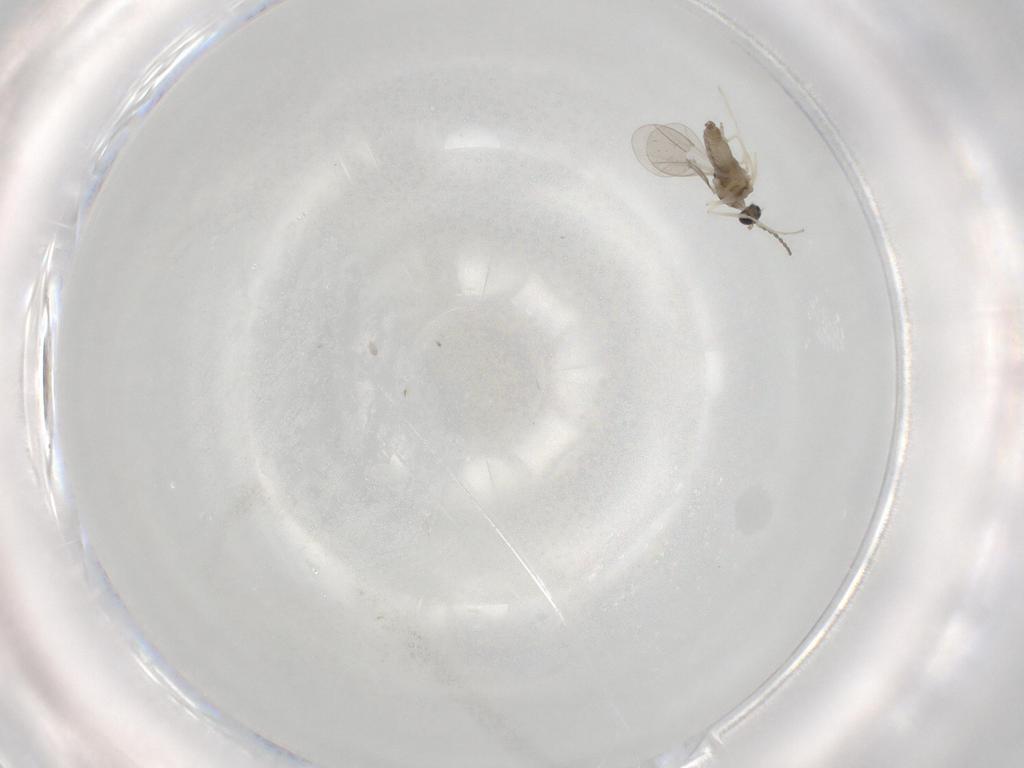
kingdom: Animalia
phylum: Arthropoda
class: Insecta
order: Diptera
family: Cecidomyiidae
